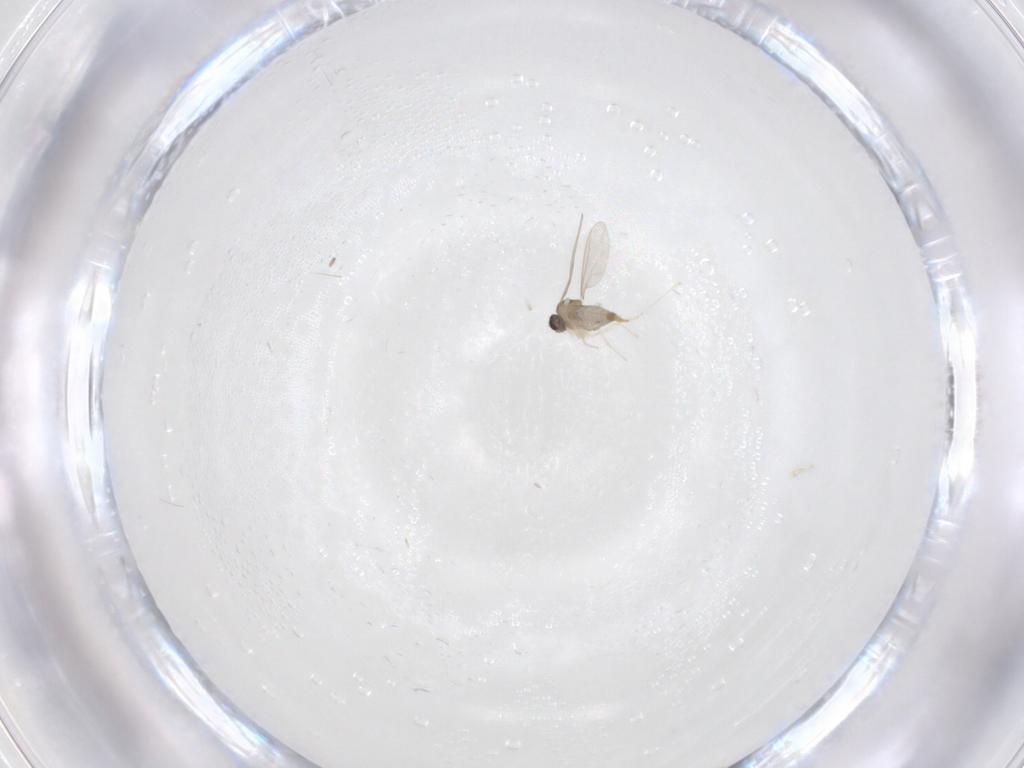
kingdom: Animalia
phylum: Arthropoda
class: Insecta
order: Diptera
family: Cecidomyiidae
